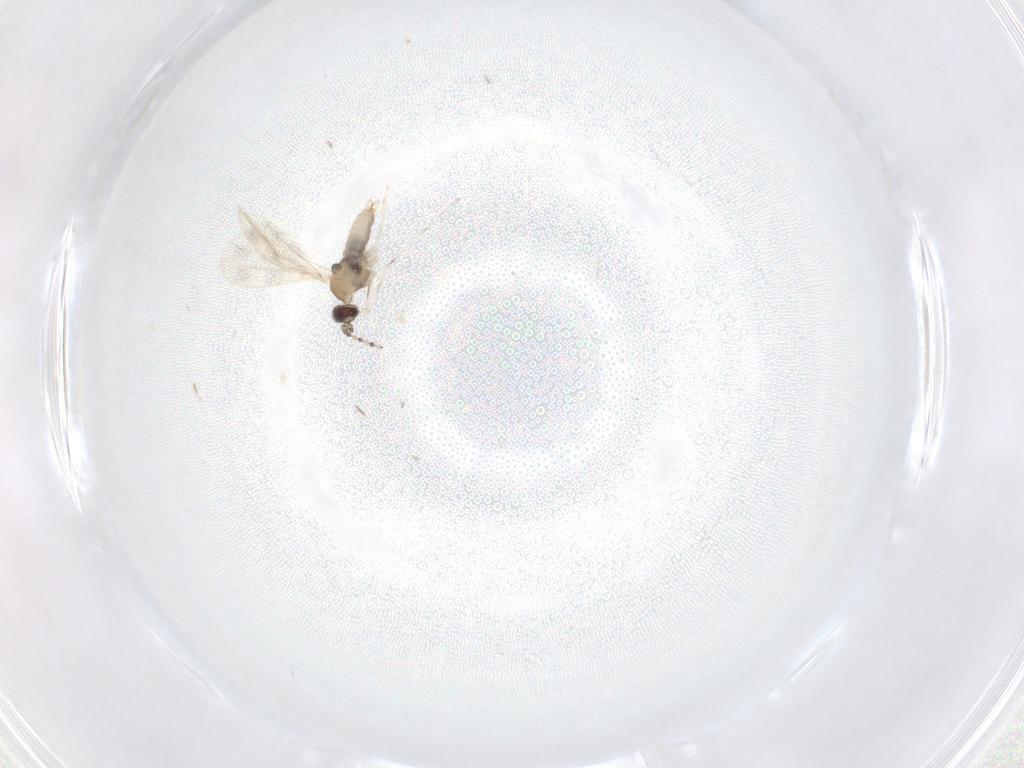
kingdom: Animalia
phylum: Arthropoda
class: Insecta
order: Diptera
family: Cecidomyiidae
